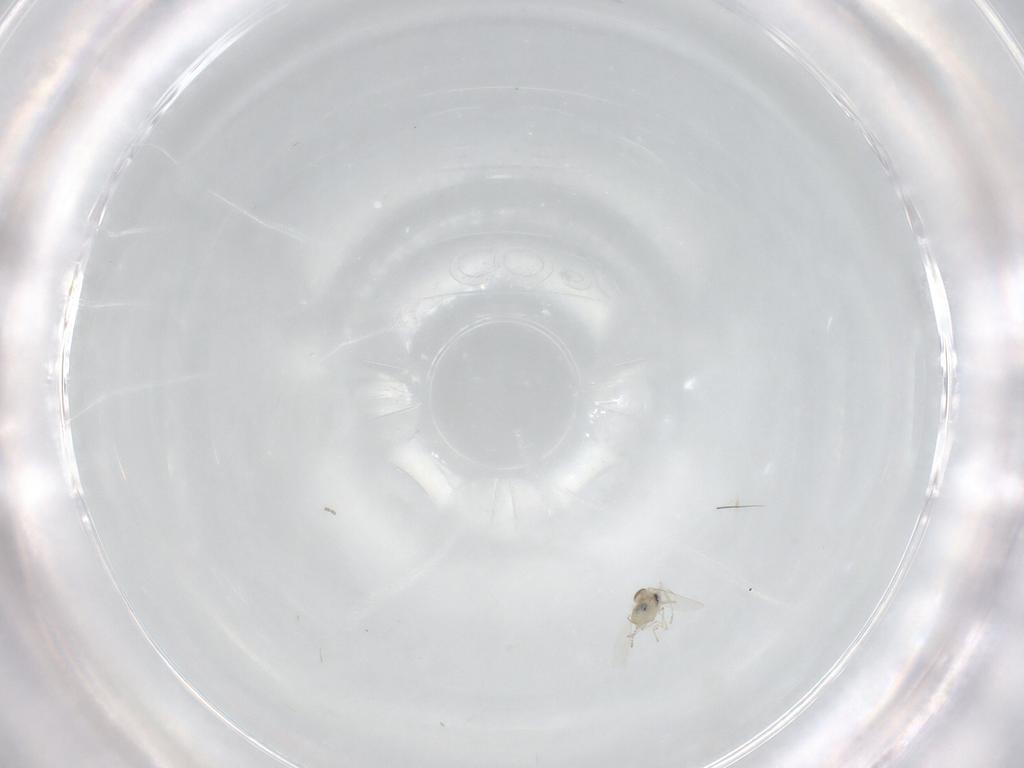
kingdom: Animalia
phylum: Arthropoda
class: Insecta
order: Diptera
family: Cecidomyiidae
